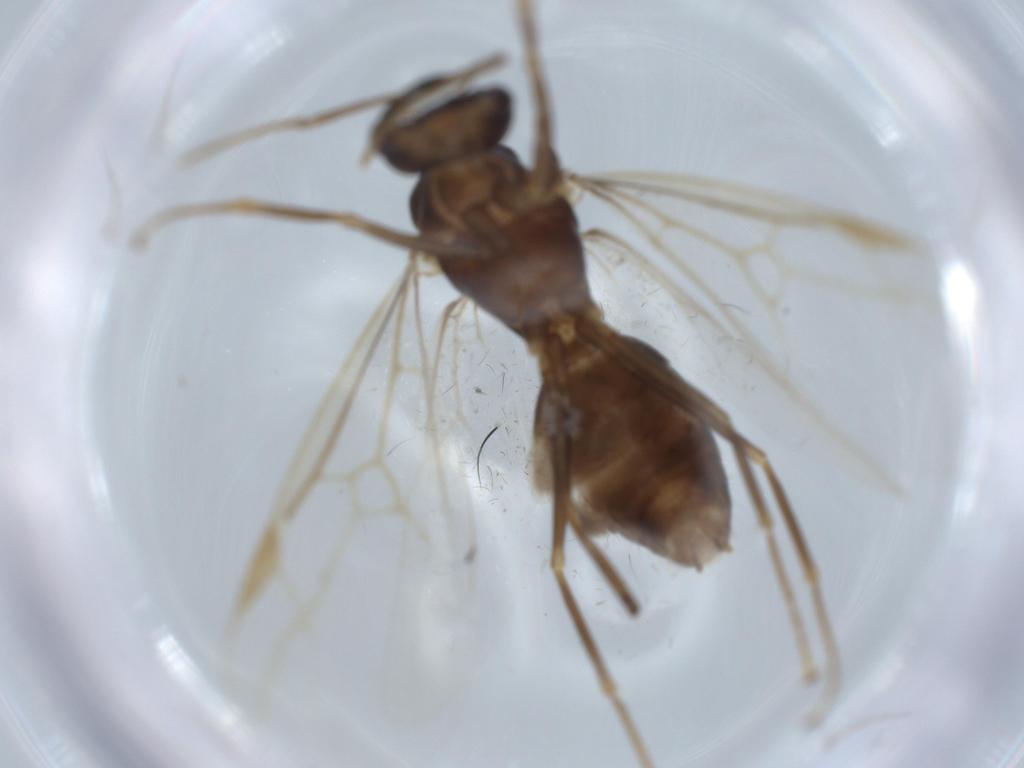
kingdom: Animalia
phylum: Arthropoda
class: Insecta
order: Hymenoptera
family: Formicidae
